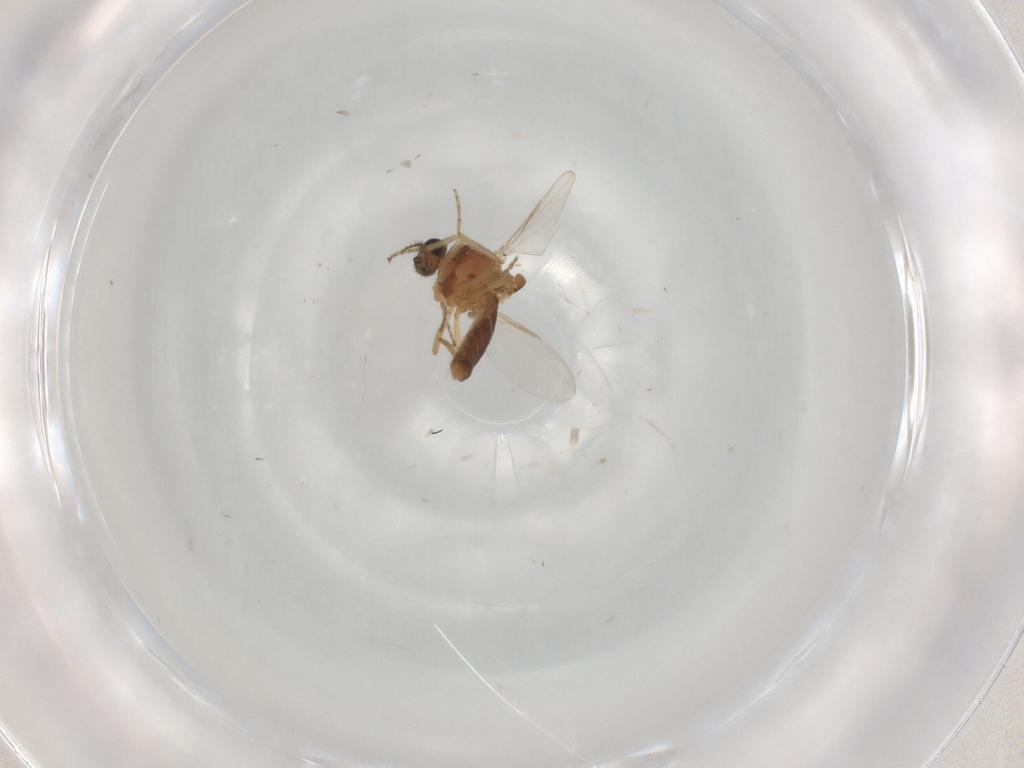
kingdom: Animalia
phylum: Arthropoda
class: Insecta
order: Diptera
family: Ceratopogonidae
